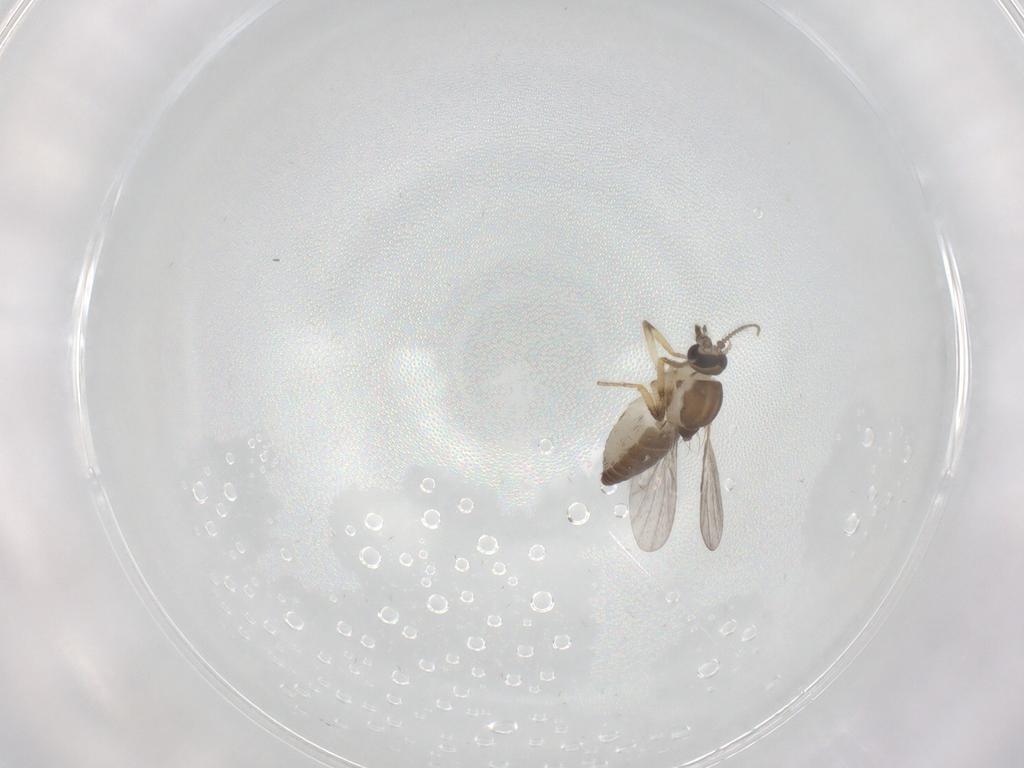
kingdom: Animalia
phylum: Arthropoda
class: Insecta
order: Diptera
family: Ceratopogonidae
